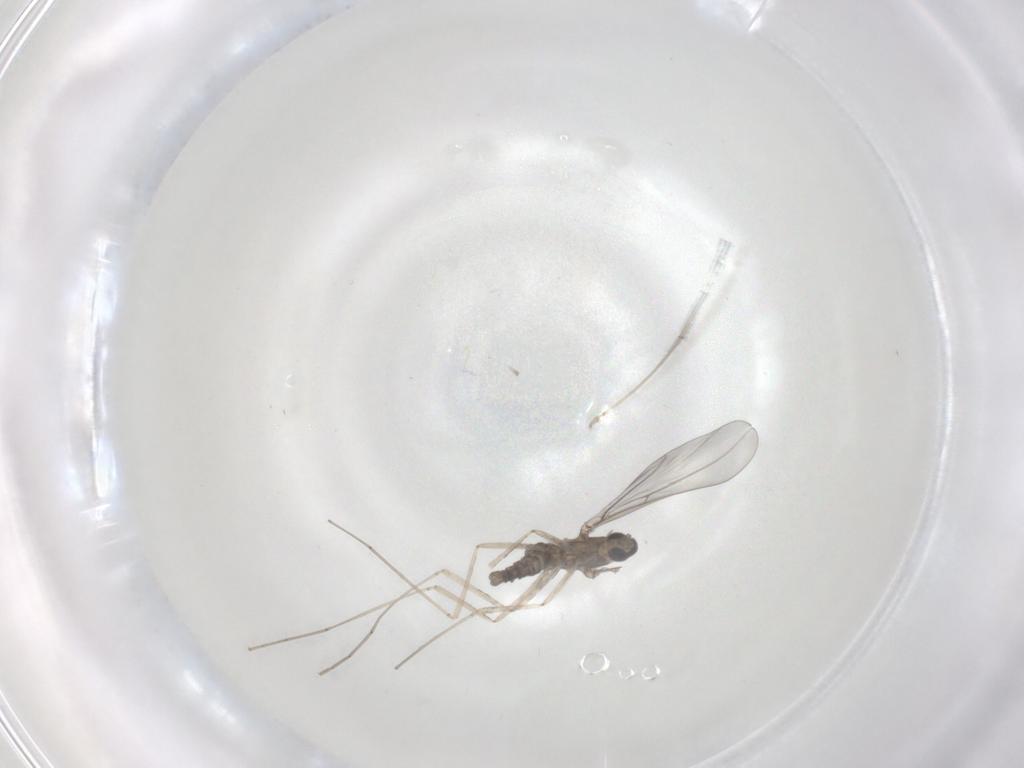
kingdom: Animalia
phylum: Arthropoda
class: Insecta
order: Diptera
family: Cecidomyiidae
